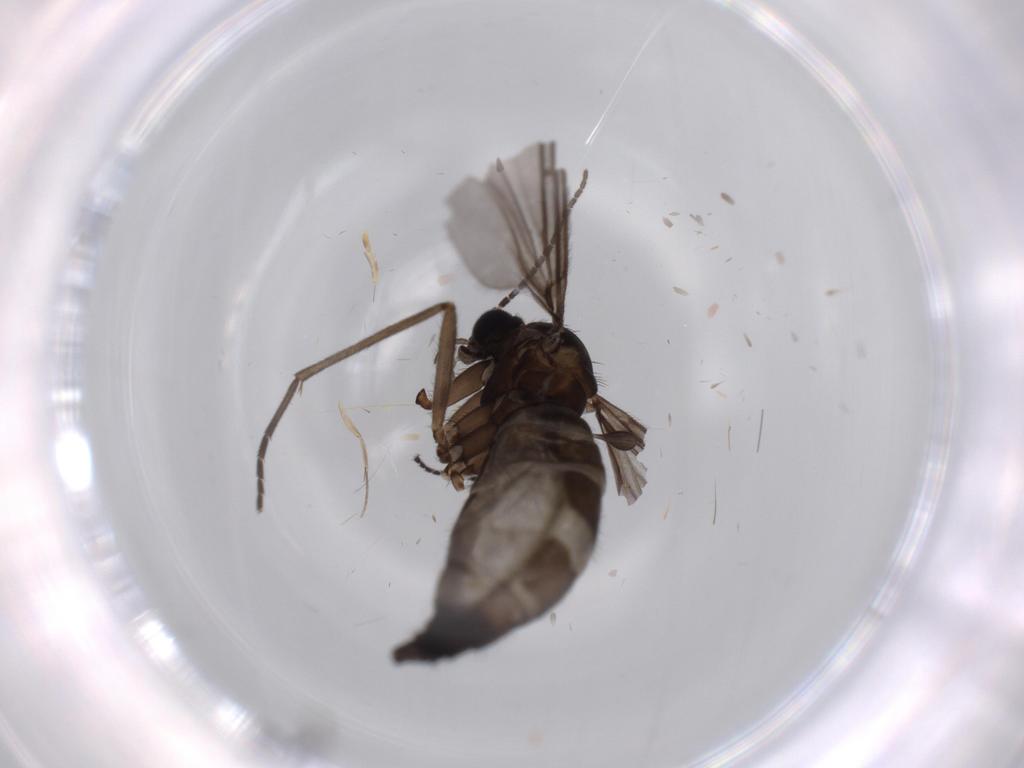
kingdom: Animalia
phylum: Arthropoda
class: Insecta
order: Diptera
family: Sciaridae
